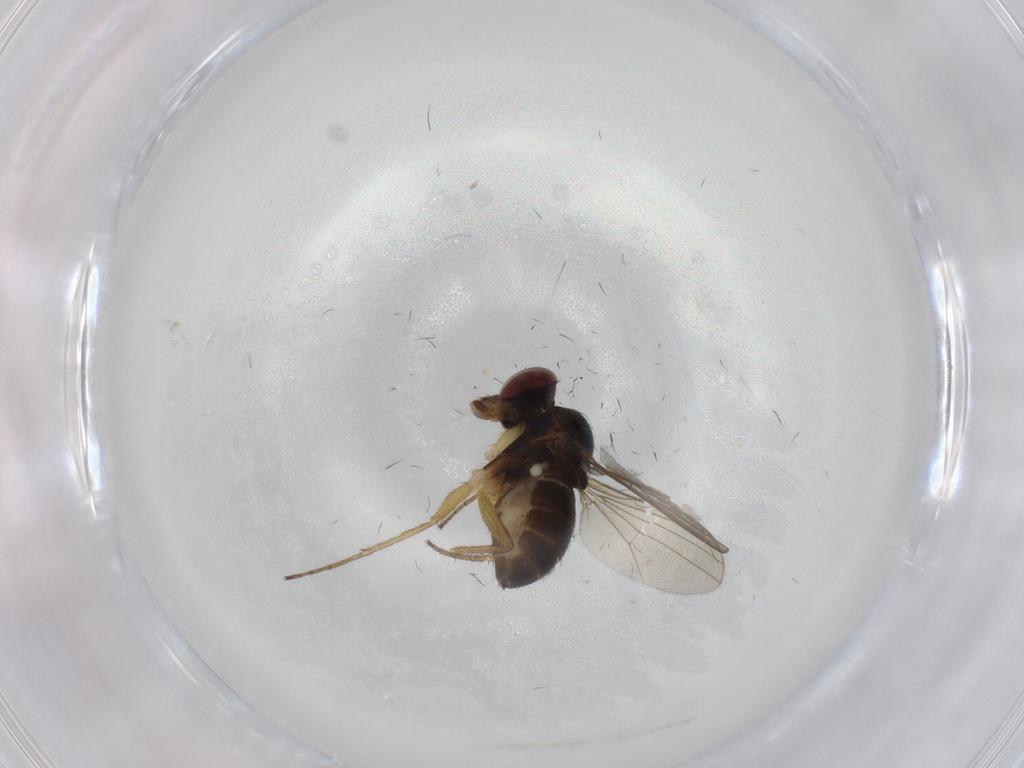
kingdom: Animalia
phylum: Arthropoda
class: Insecta
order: Diptera
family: Dolichopodidae
